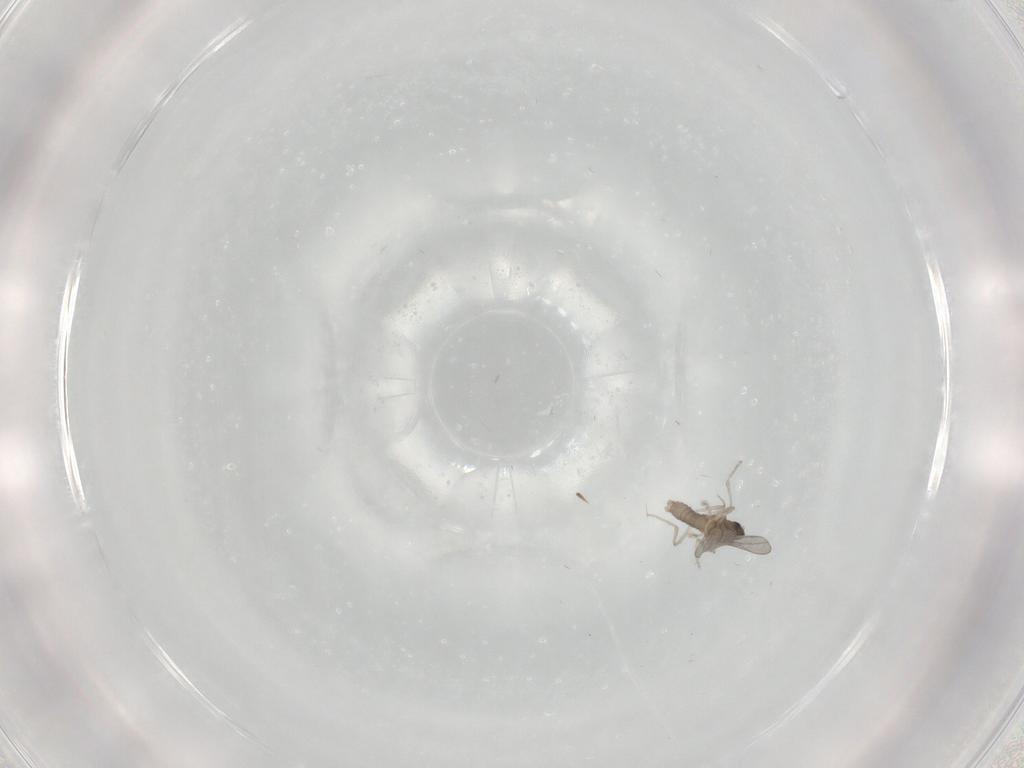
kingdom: Animalia
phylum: Arthropoda
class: Insecta
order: Diptera
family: Cecidomyiidae
